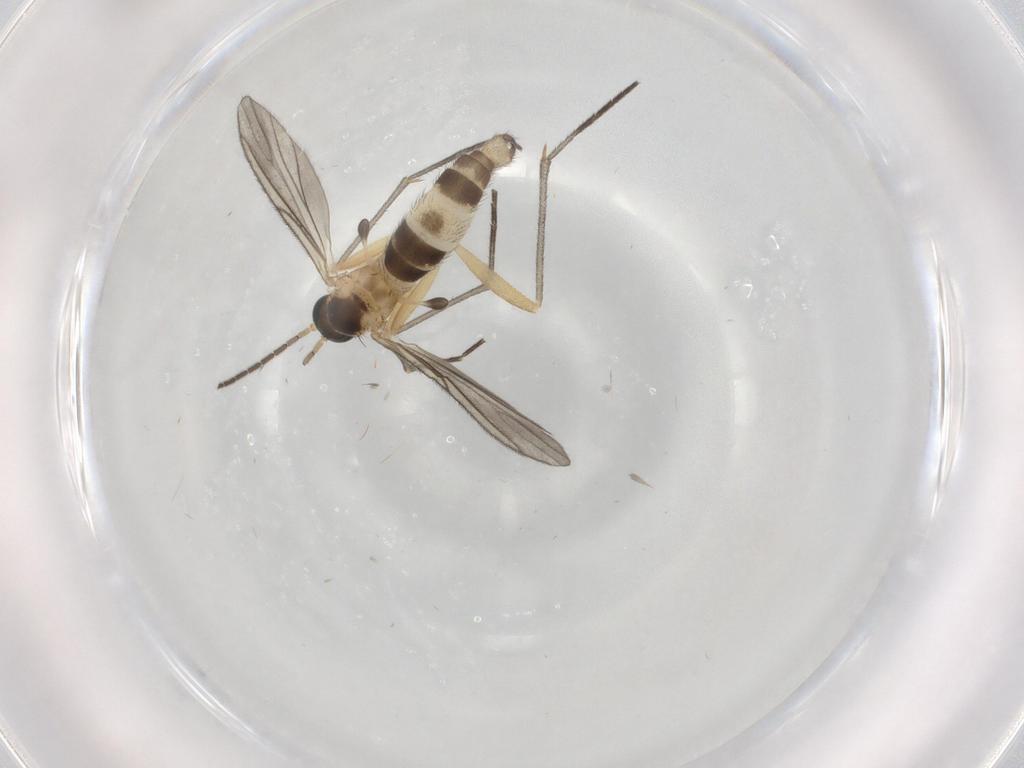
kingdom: Animalia
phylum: Arthropoda
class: Insecta
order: Diptera
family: Sciaridae
